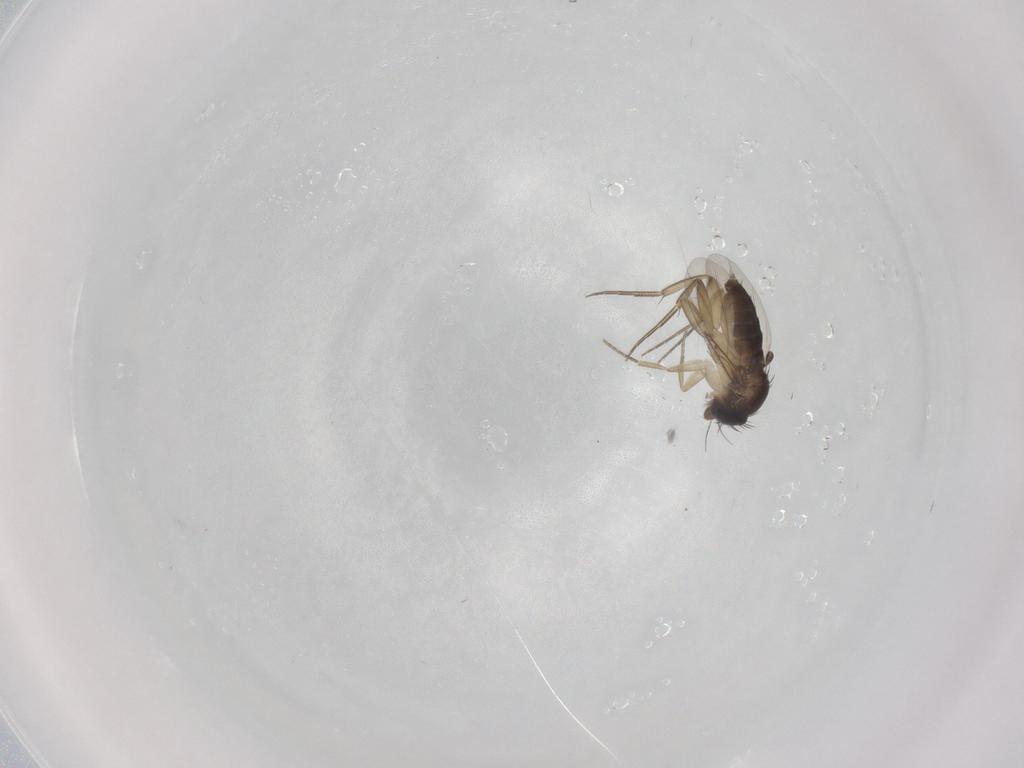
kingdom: Animalia
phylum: Arthropoda
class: Insecta
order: Diptera
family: Phoridae
